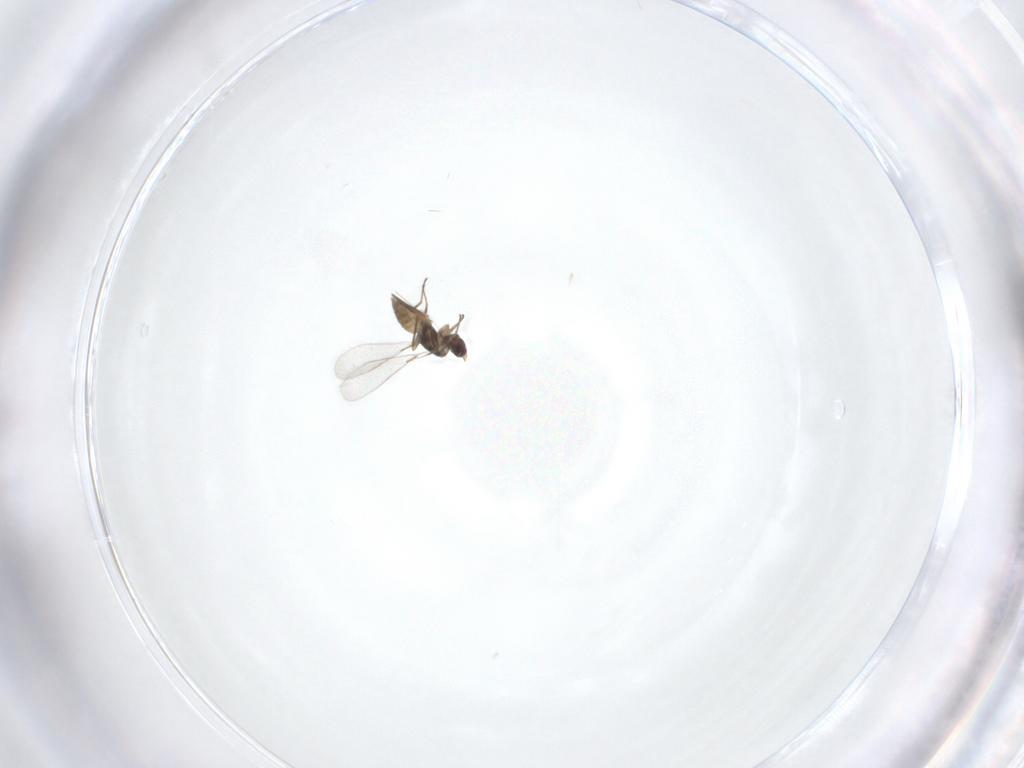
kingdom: Animalia
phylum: Arthropoda
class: Insecta
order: Hymenoptera
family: Mymaridae
